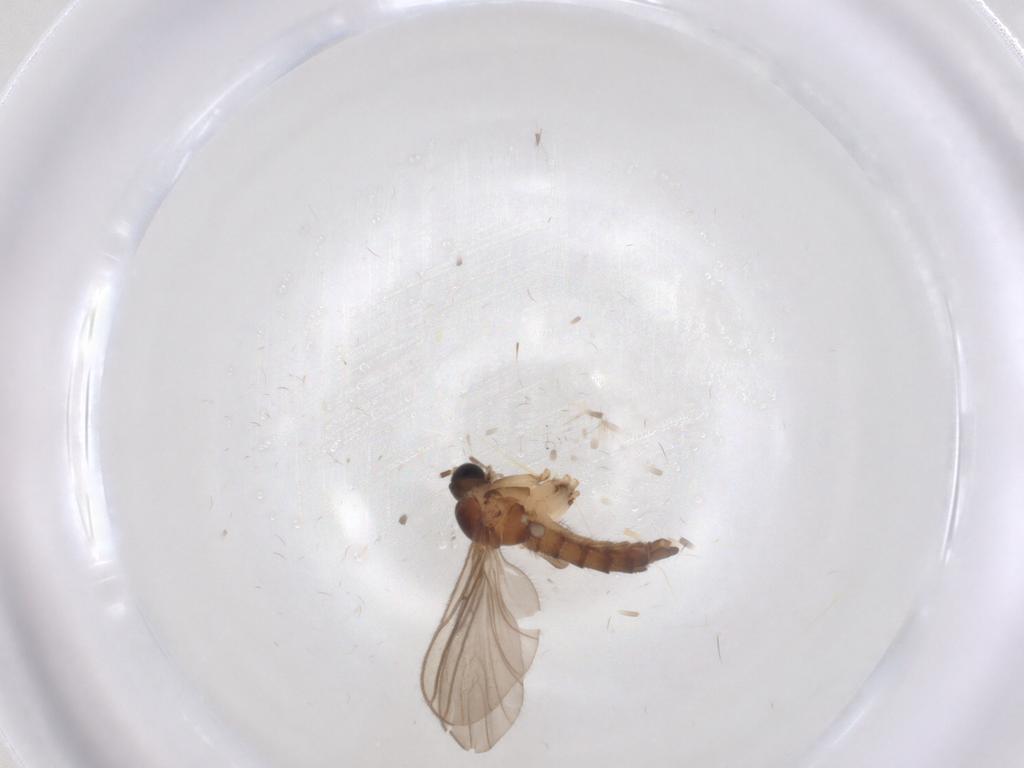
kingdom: Animalia
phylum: Arthropoda
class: Insecta
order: Diptera
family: Sciaridae
